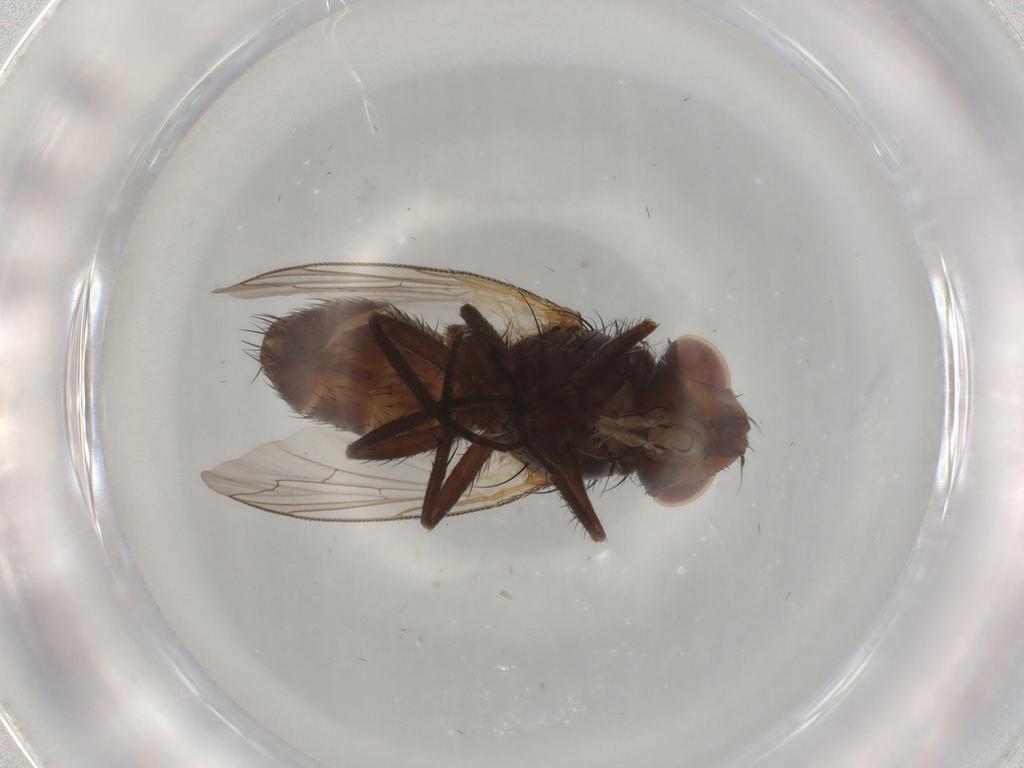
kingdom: Animalia
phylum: Arthropoda
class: Insecta
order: Diptera
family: Sarcophagidae
